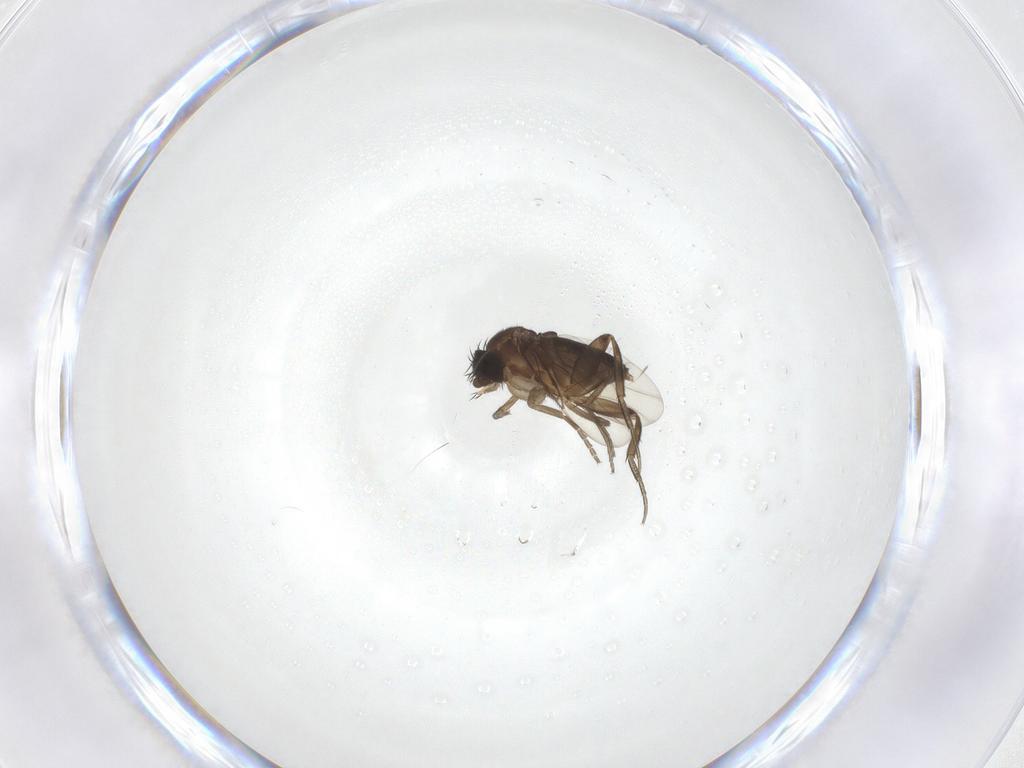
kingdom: Animalia
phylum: Arthropoda
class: Insecta
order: Diptera
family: Phoridae
